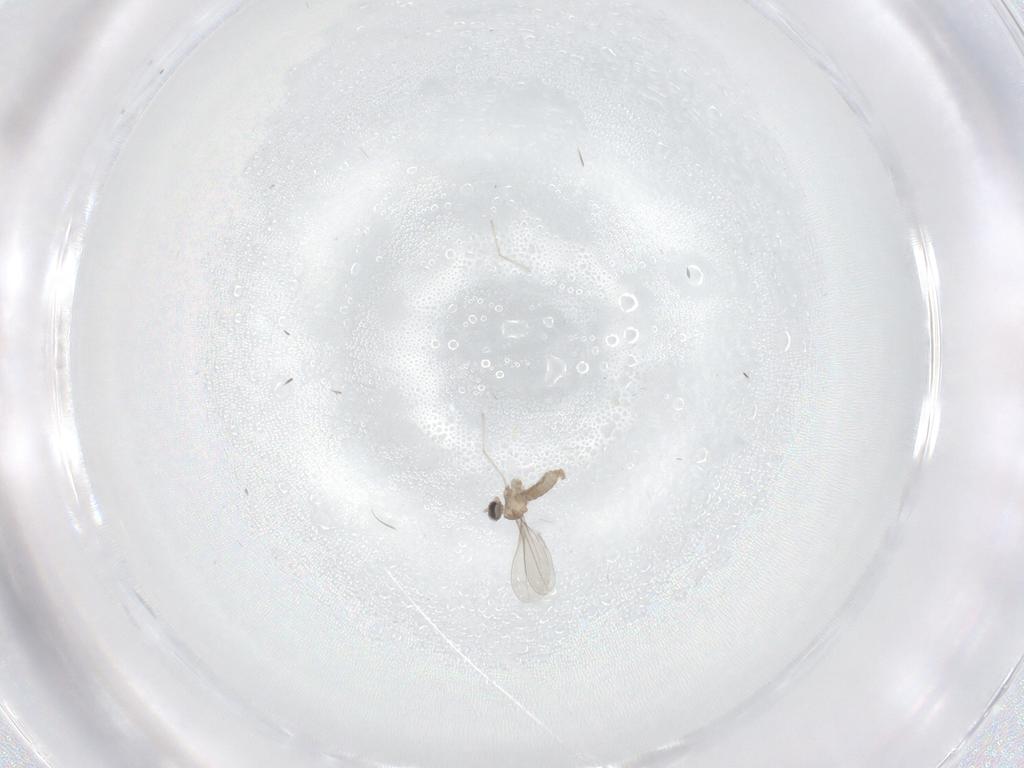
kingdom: Animalia
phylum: Arthropoda
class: Insecta
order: Diptera
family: Cecidomyiidae
